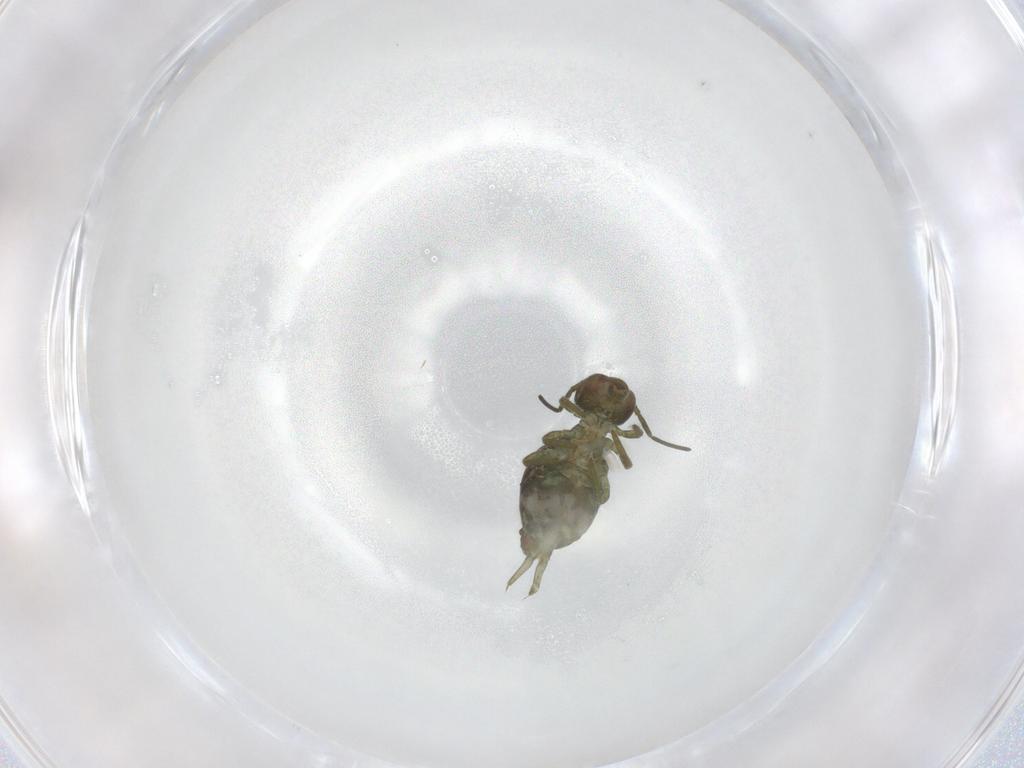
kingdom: Animalia
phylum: Arthropoda
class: Collembola
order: Symphypleona
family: Sminthuridae
